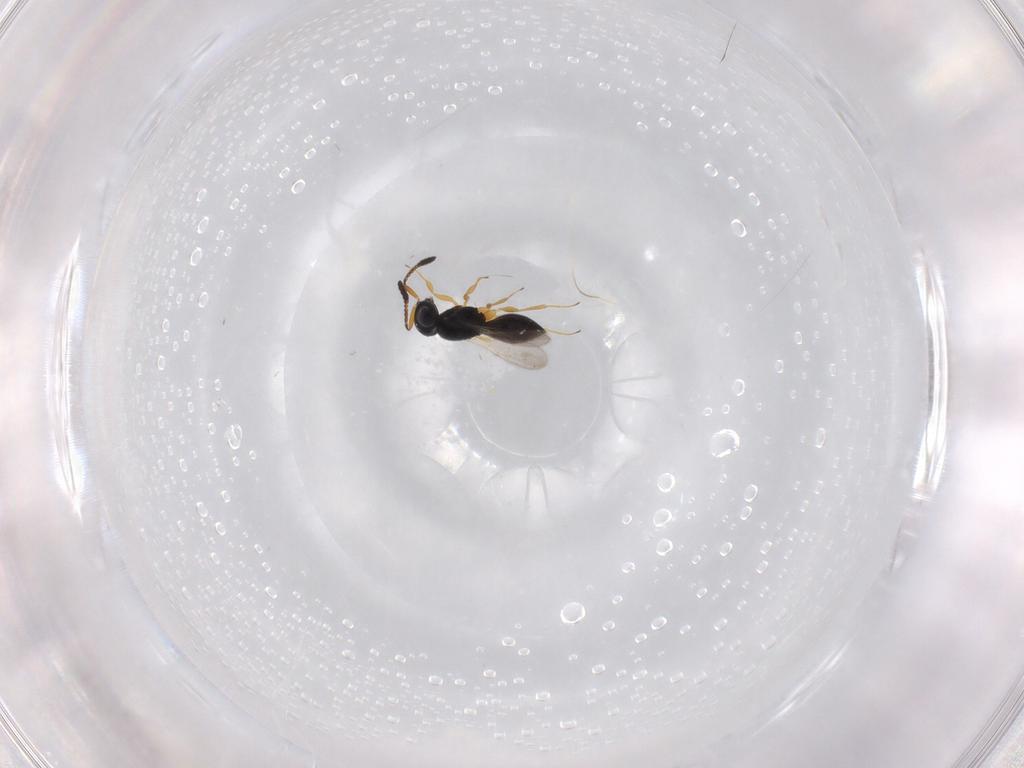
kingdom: Animalia
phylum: Arthropoda
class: Insecta
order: Hymenoptera
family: Scelionidae
